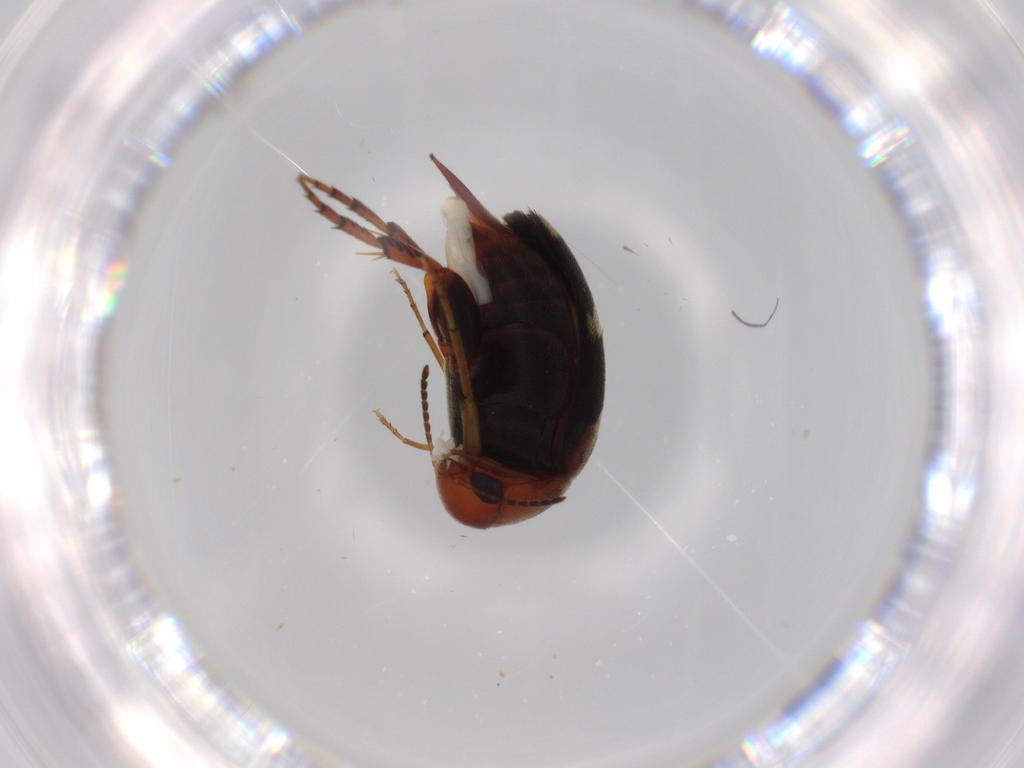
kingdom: Animalia
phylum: Arthropoda
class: Insecta
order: Coleoptera
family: Mordellidae
